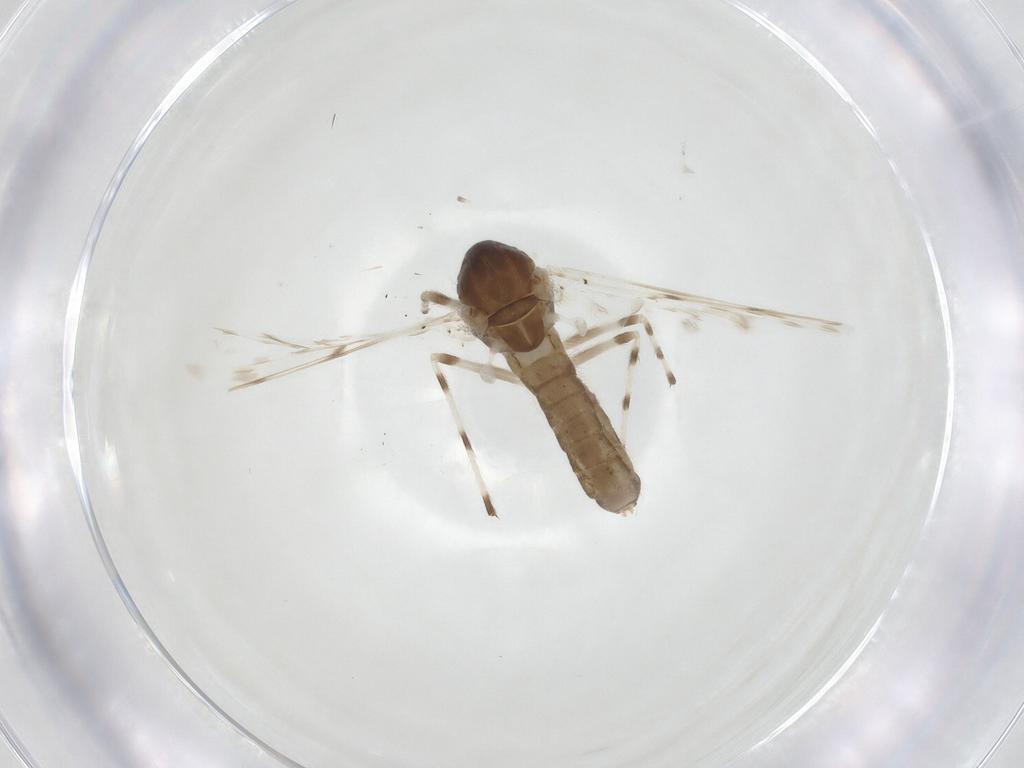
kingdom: Animalia
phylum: Arthropoda
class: Insecta
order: Diptera
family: Chironomidae
